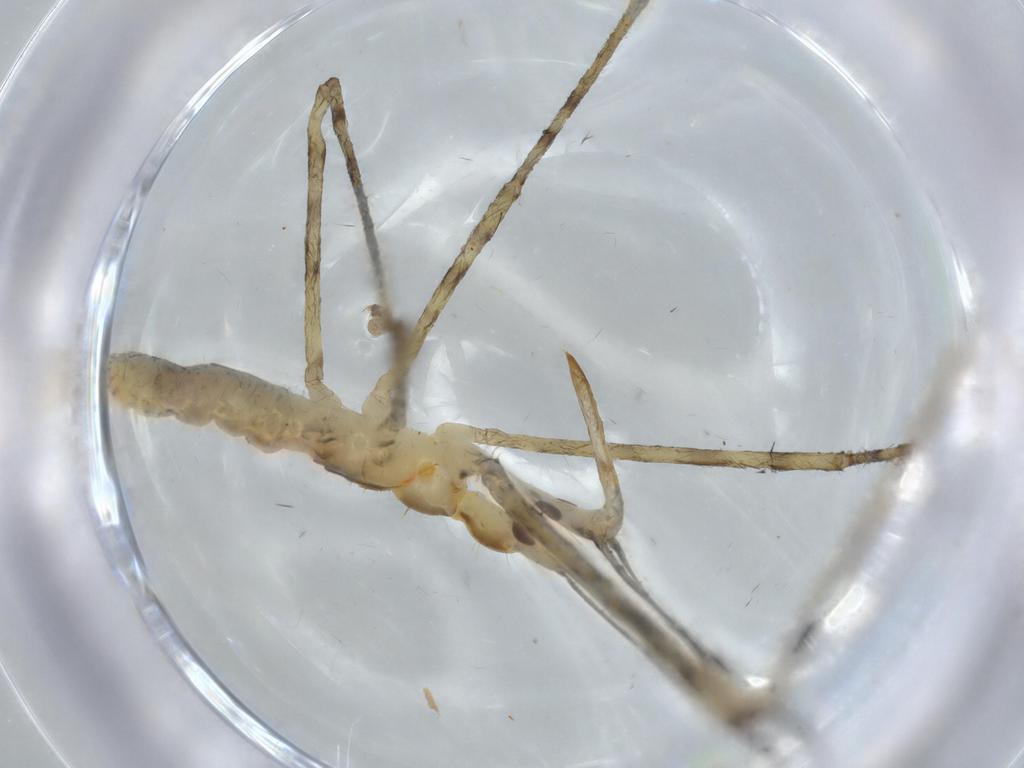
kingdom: Animalia
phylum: Arthropoda
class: Insecta
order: Hemiptera
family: Reduviidae
